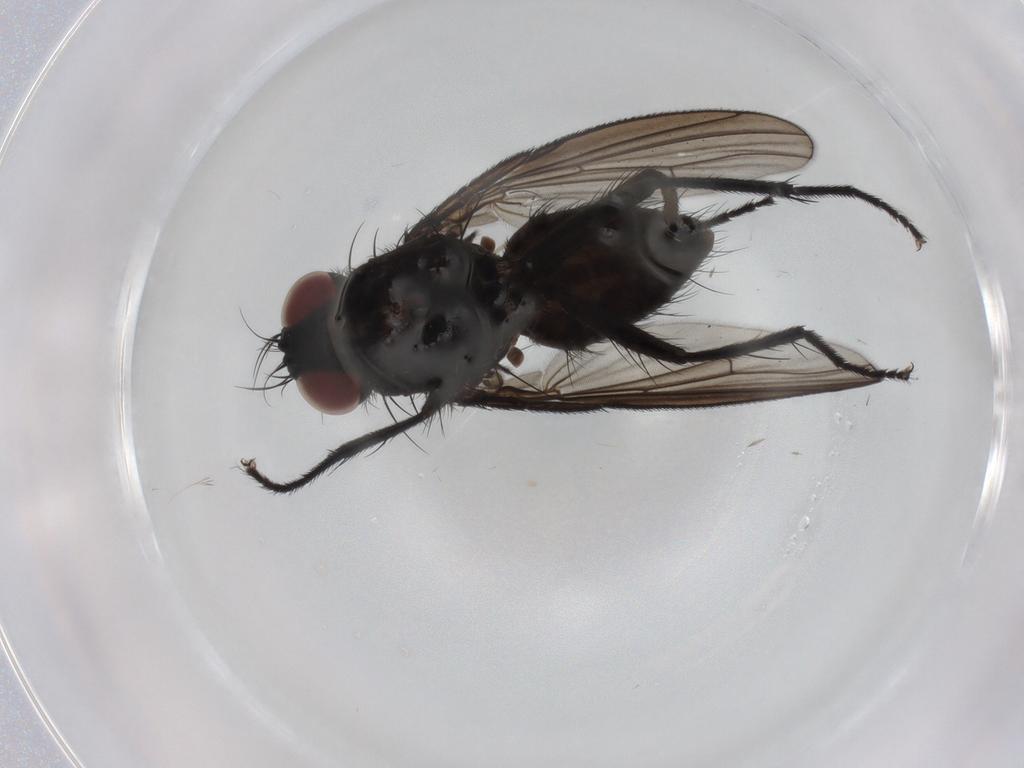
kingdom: Animalia
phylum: Arthropoda
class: Insecta
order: Diptera
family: Muscidae
